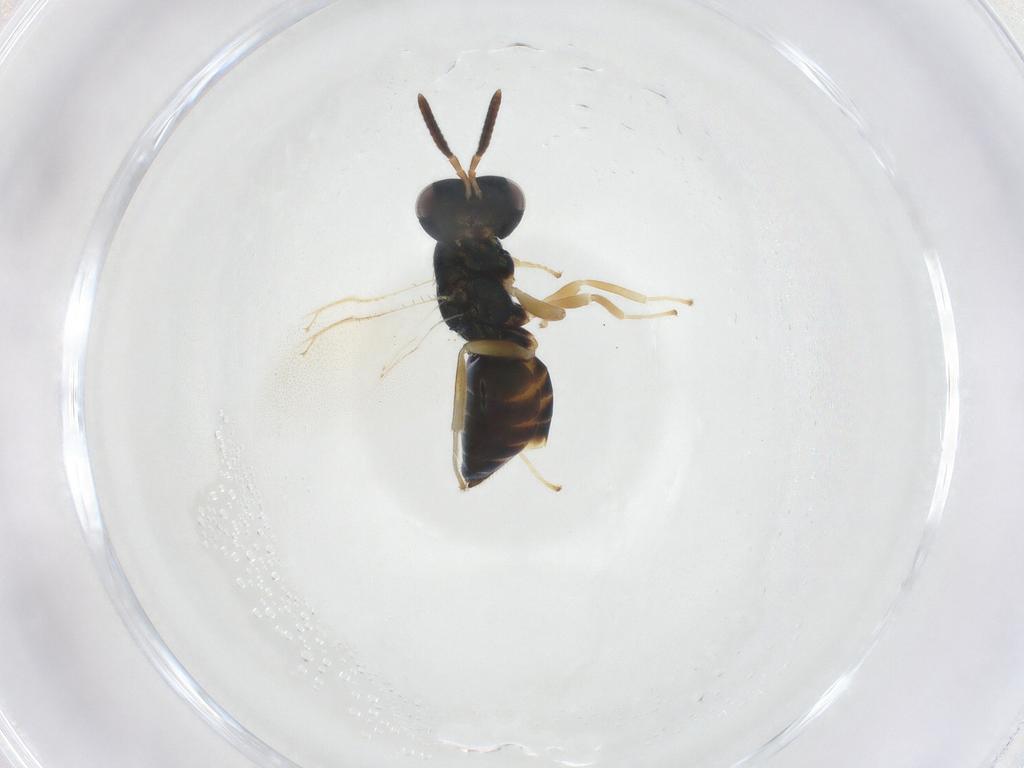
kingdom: Animalia
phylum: Arthropoda
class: Insecta
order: Hymenoptera
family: Pteromalidae
